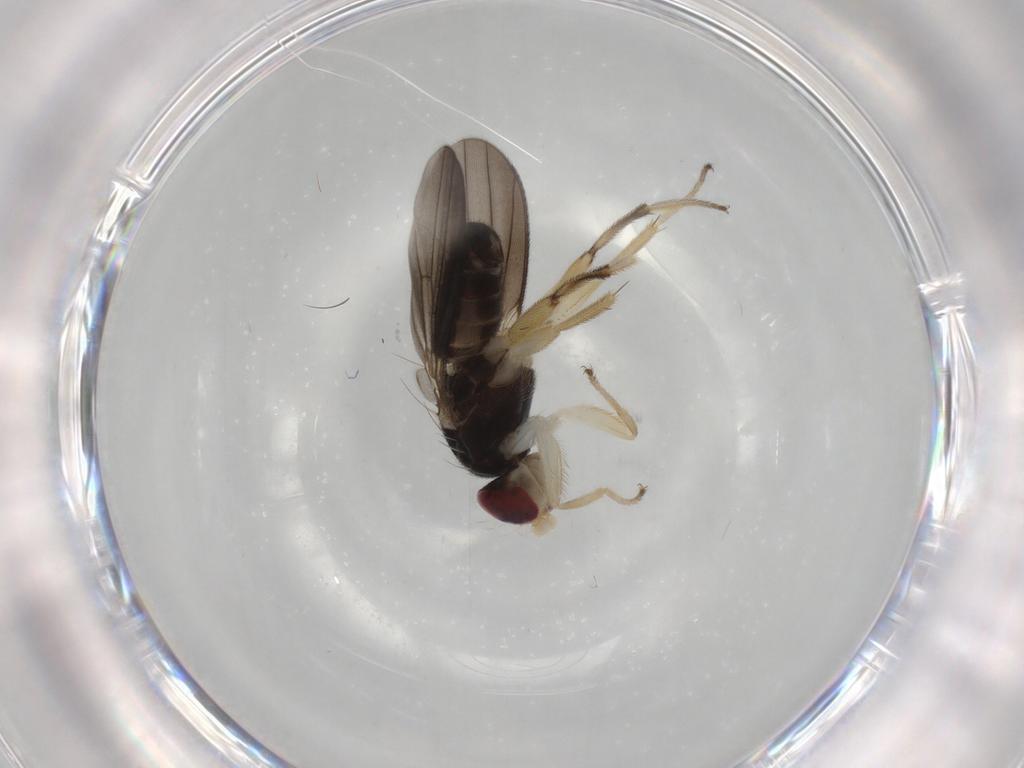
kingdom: Animalia
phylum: Arthropoda
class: Insecta
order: Diptera
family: Clusiidae
